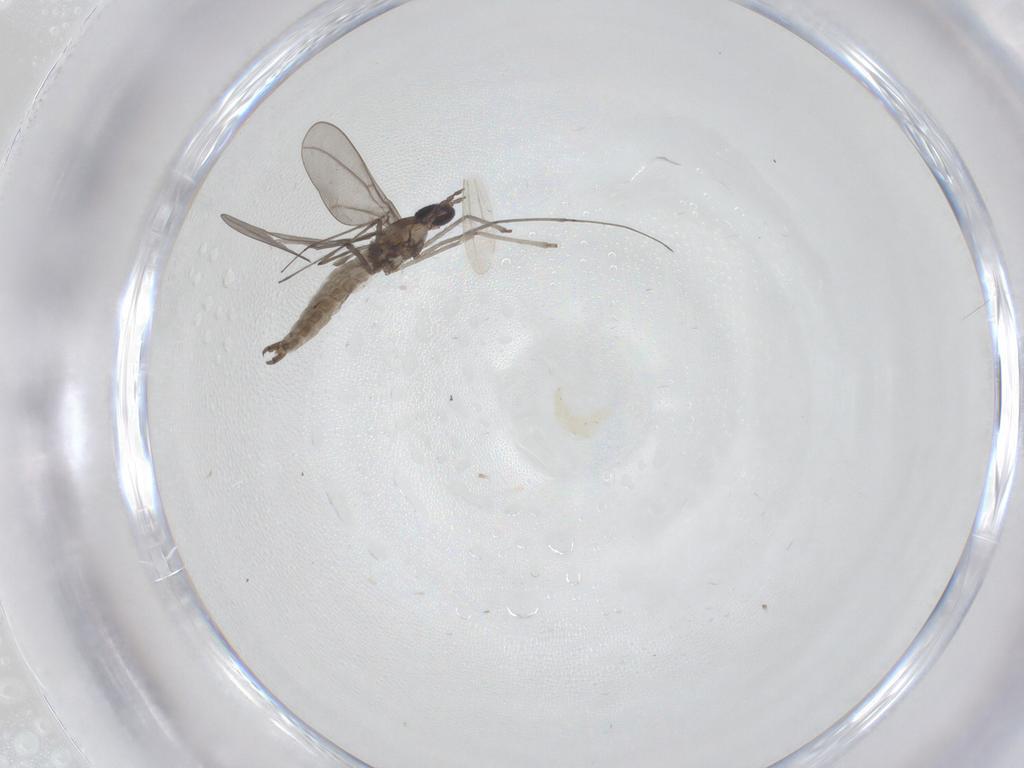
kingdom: Animalia
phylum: Arthropoda
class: Insecta
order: Diptera
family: Cecidomyiidae
